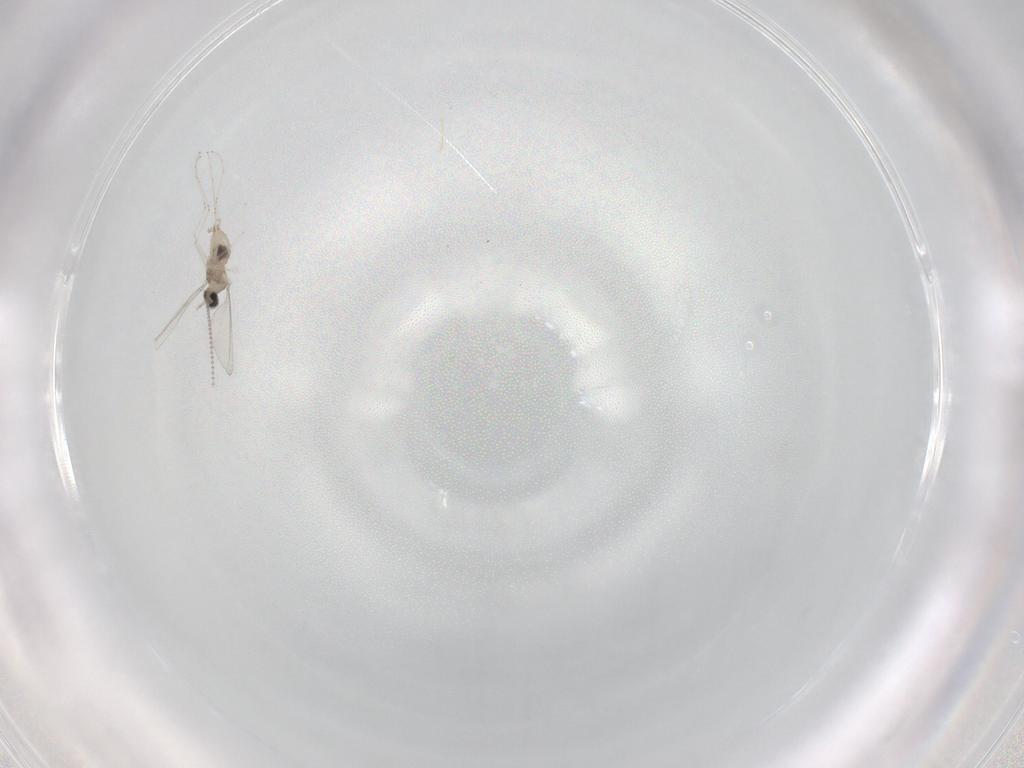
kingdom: Animalia
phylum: Arthropoda
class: Insecta
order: Diptera
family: Cecidomyiidae
